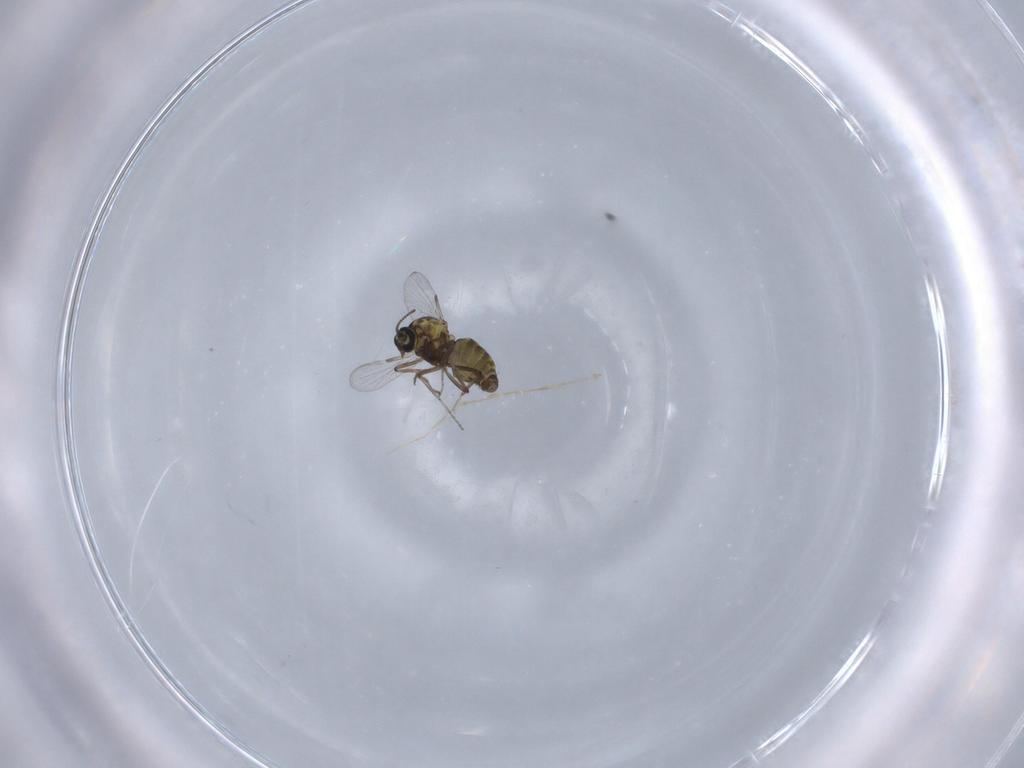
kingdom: Animalia
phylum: Arthropoda
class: Insecta
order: Diptera
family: Ceratopogonidae
